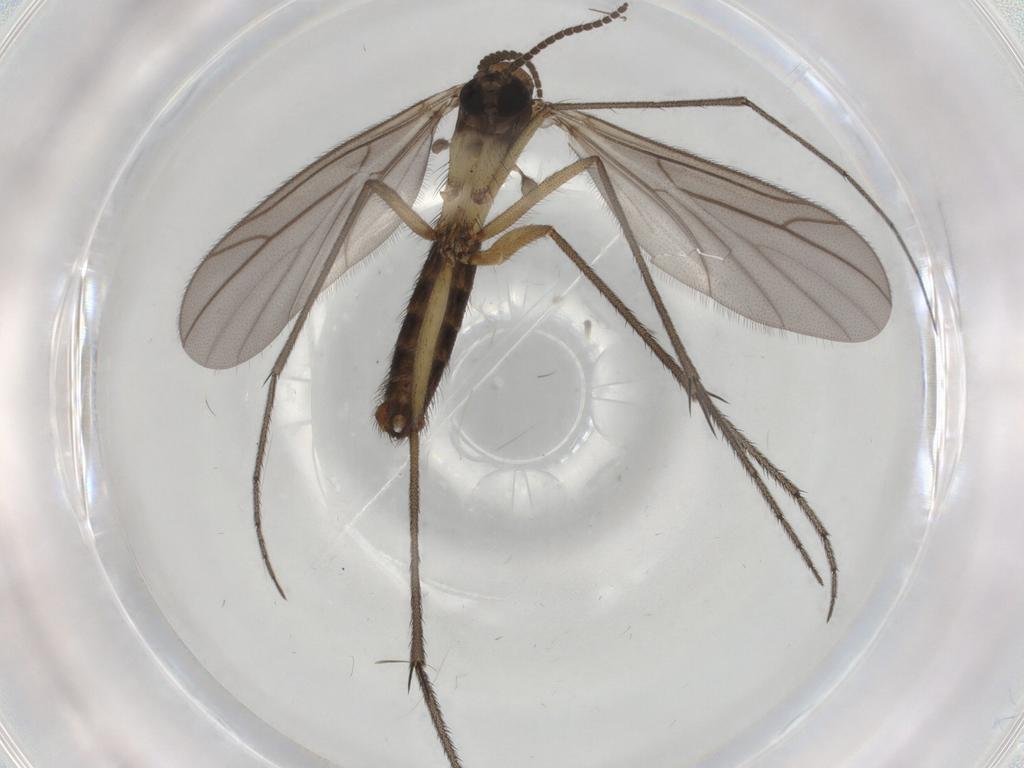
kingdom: Animalia
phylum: Arthropoda
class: Insecta
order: Diptera
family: Ditomyiidae
